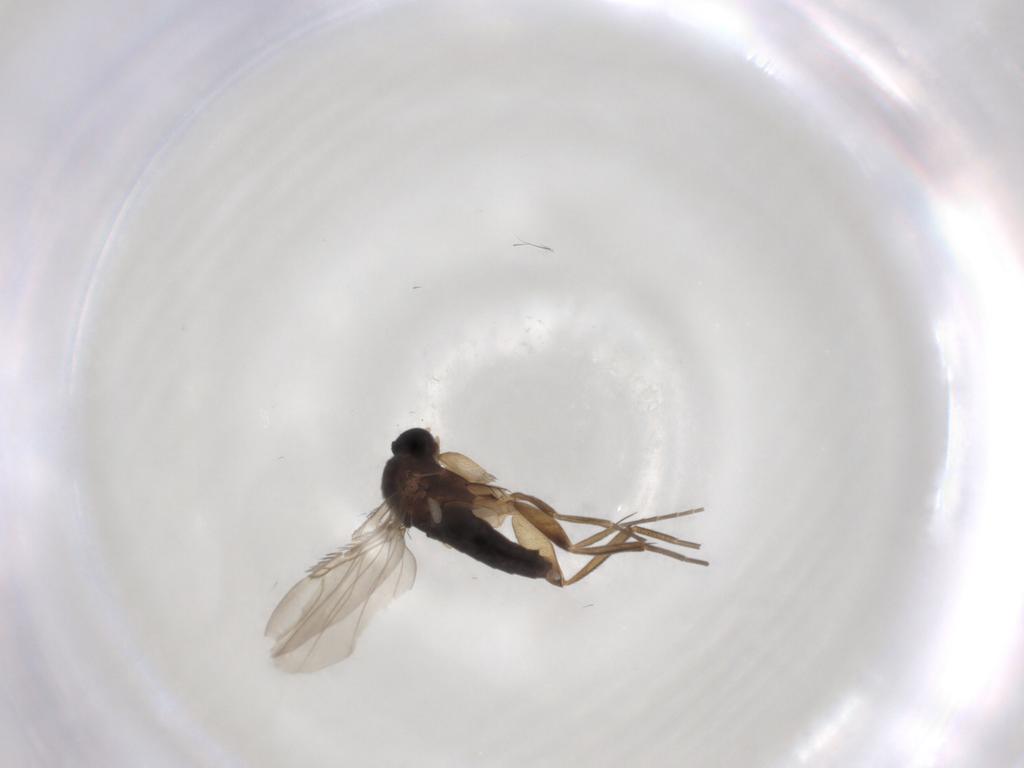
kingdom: Animalia
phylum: Arthropoda
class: Insecta
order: Diptera
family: Phoridae
